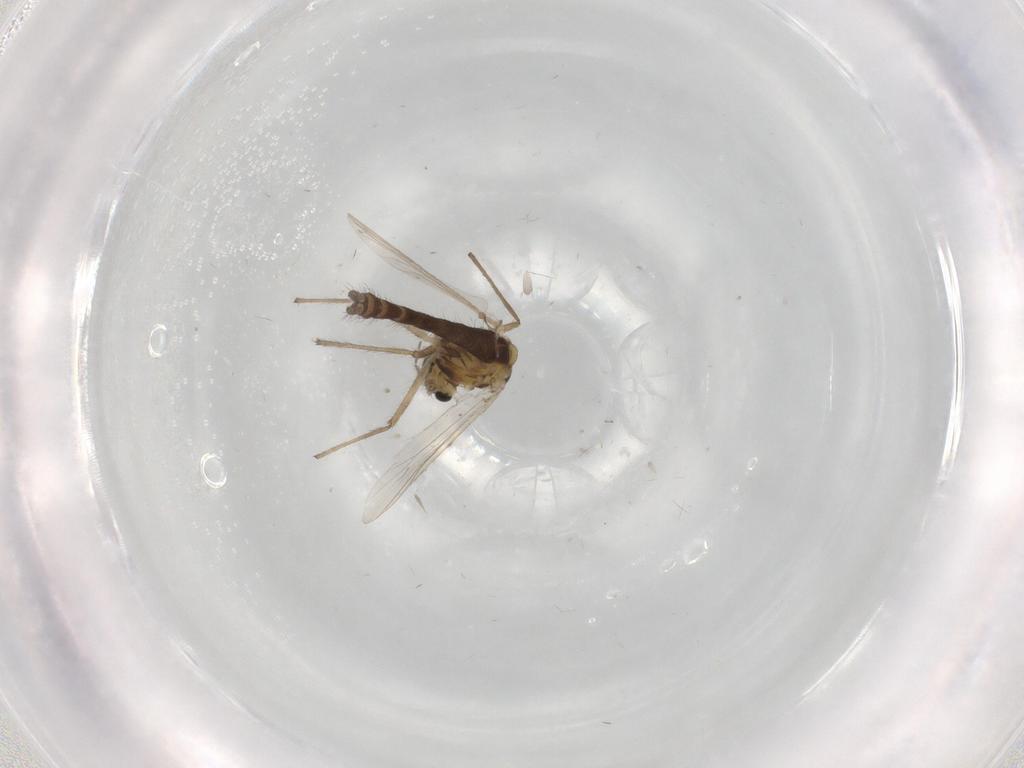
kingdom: Animalia
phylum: Arthropoda
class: Insecta
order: Diptera
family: Chironomidae
